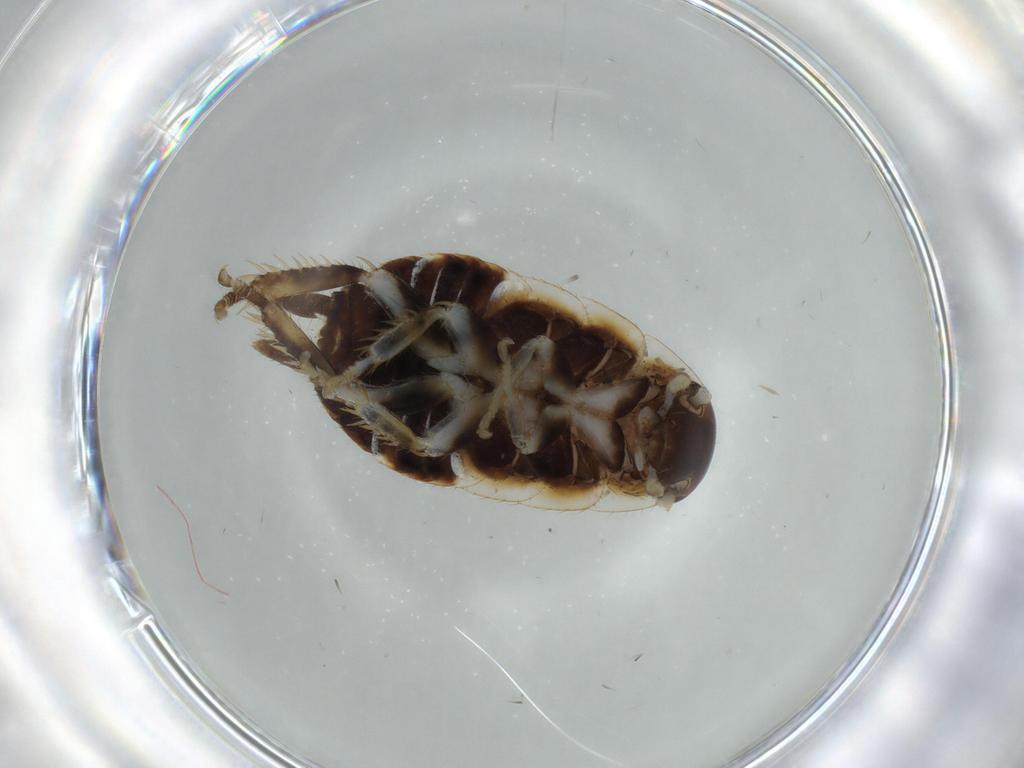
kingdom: Animalia
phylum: Arthropoda
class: Insecta
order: Blattodea
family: Ectobiidae
